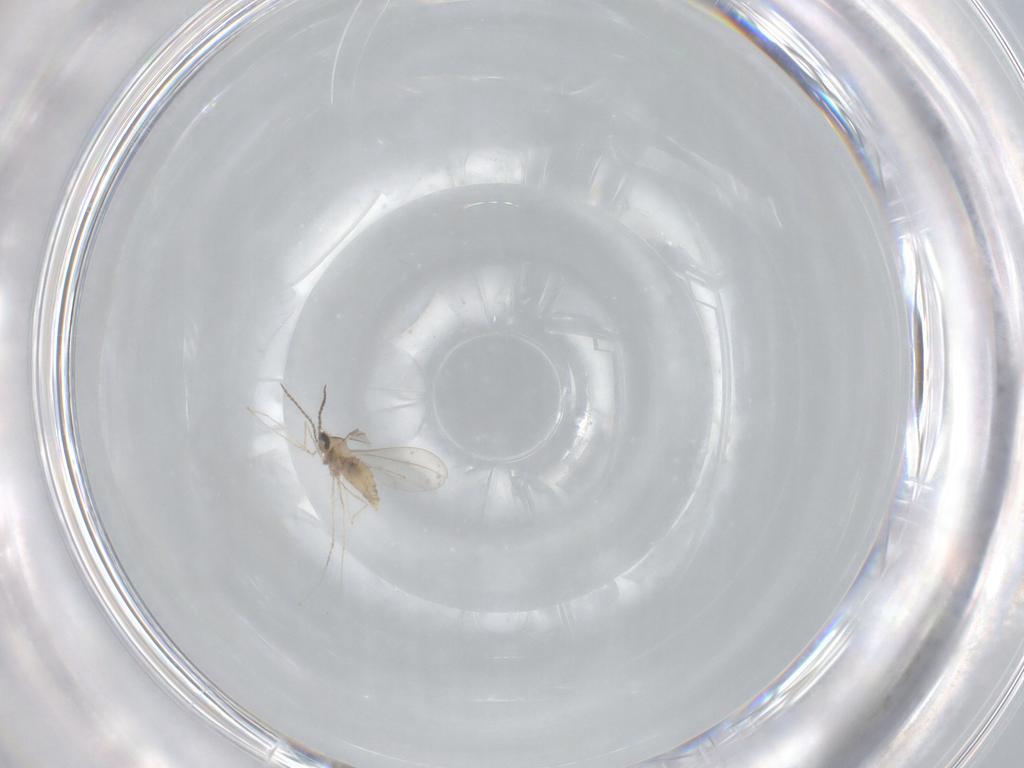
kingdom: Animalia
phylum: Arthropoda
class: Insecta
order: Diptera
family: Cecidomyiidae
